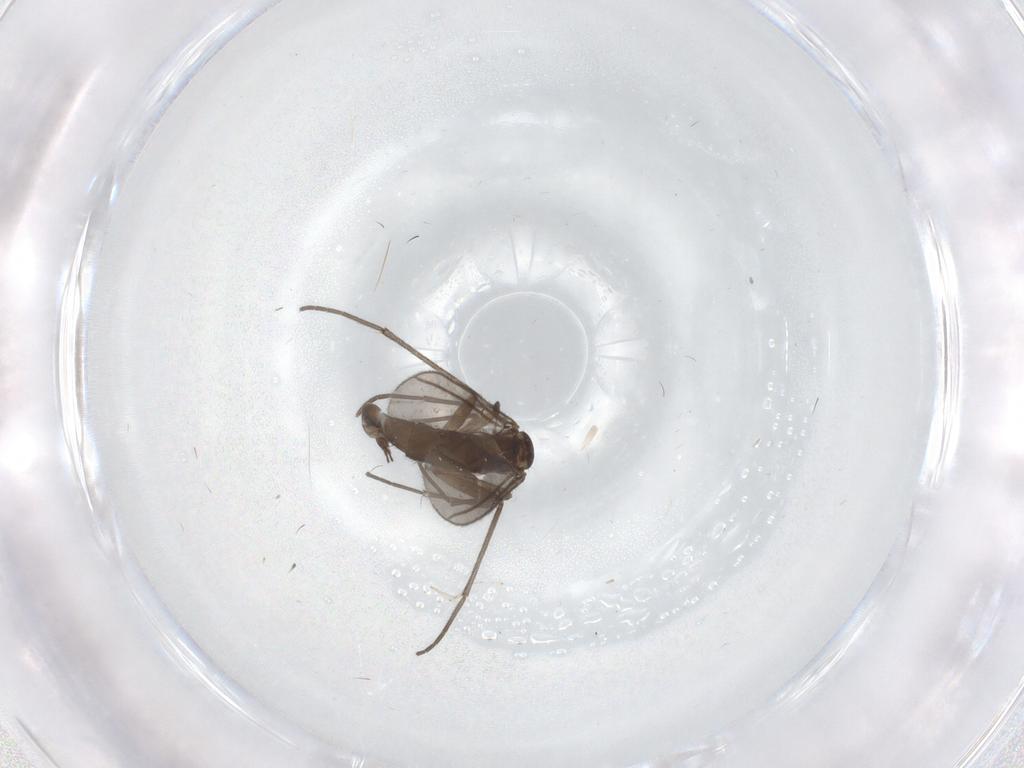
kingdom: Animalia
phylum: Arthropoda
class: Insecta
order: Diptera
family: Sciaridae
